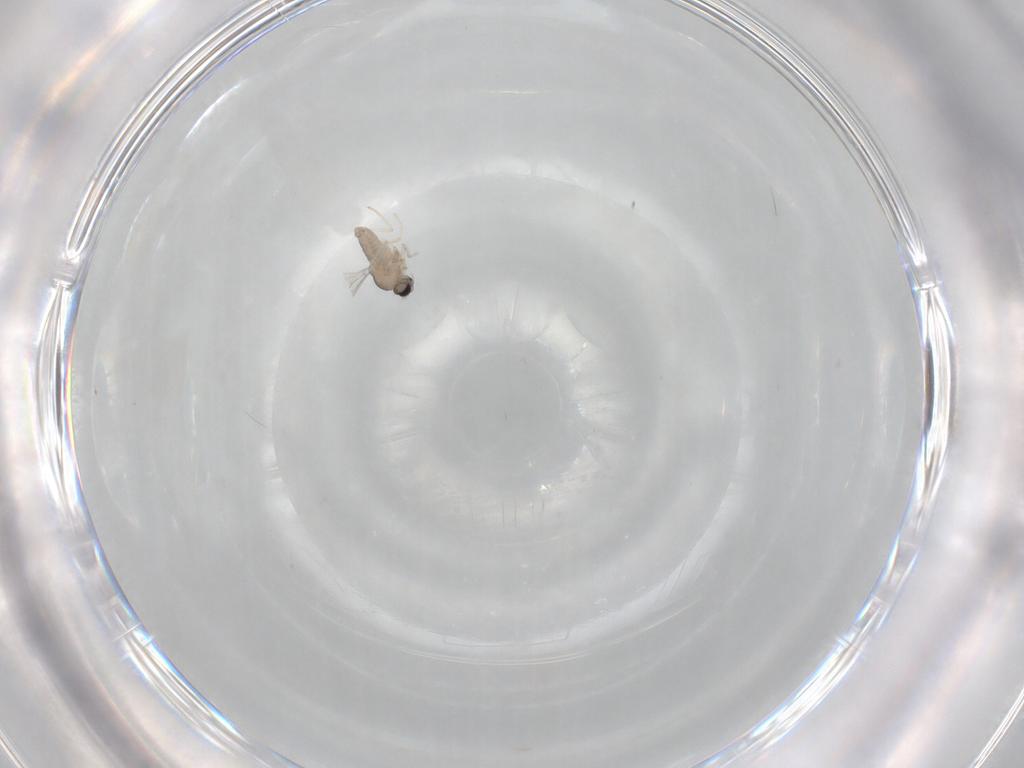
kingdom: Animalia
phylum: Arthropoda
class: Insecta
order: Diptera
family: Cecidomyiidae
